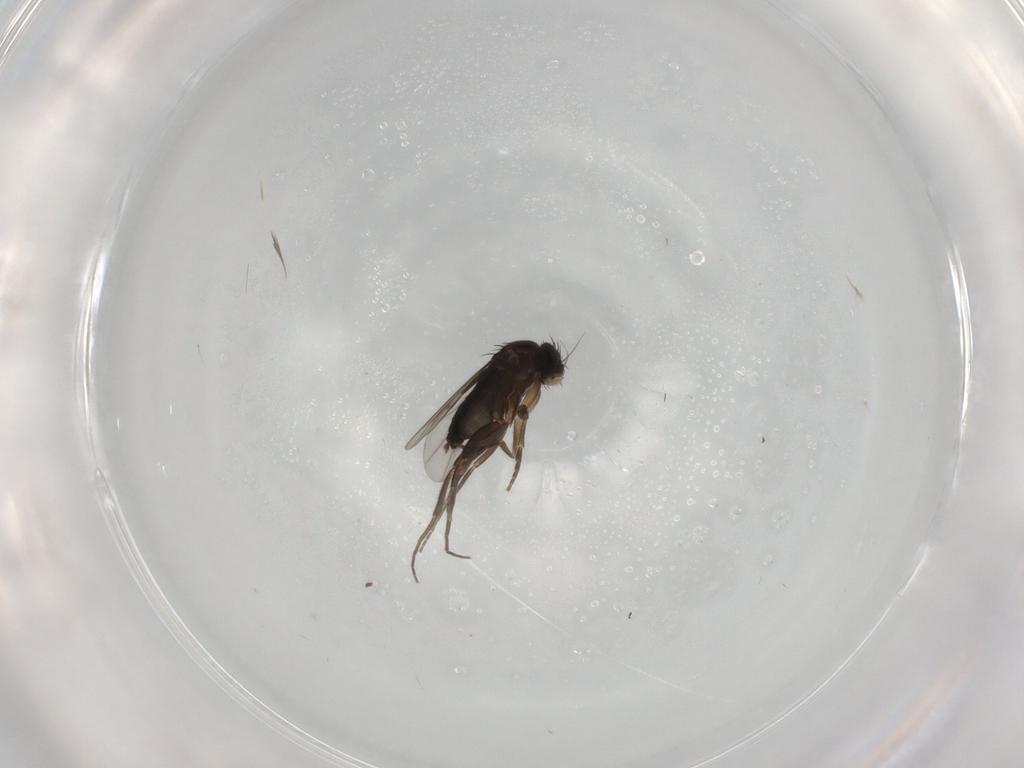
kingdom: Animalia
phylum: Arthropoda
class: Insecta
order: Diptera
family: Phoridae
